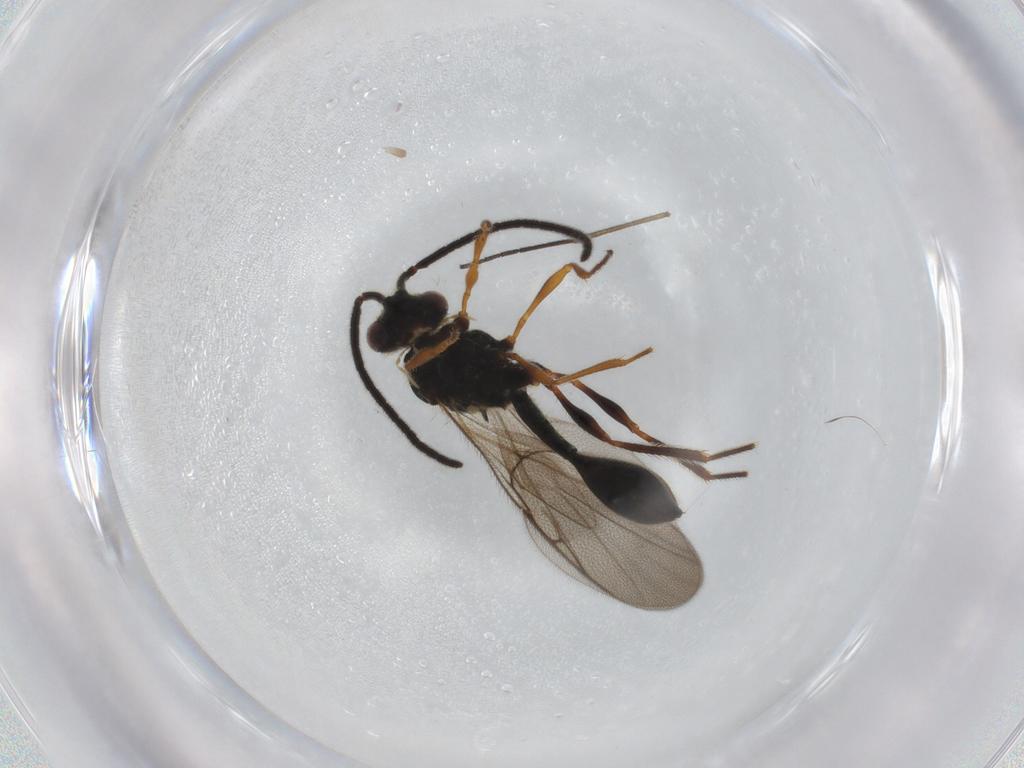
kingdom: Animalia
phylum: Arthropoda
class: Insecta
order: Hymenoptera
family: Diapriidae
